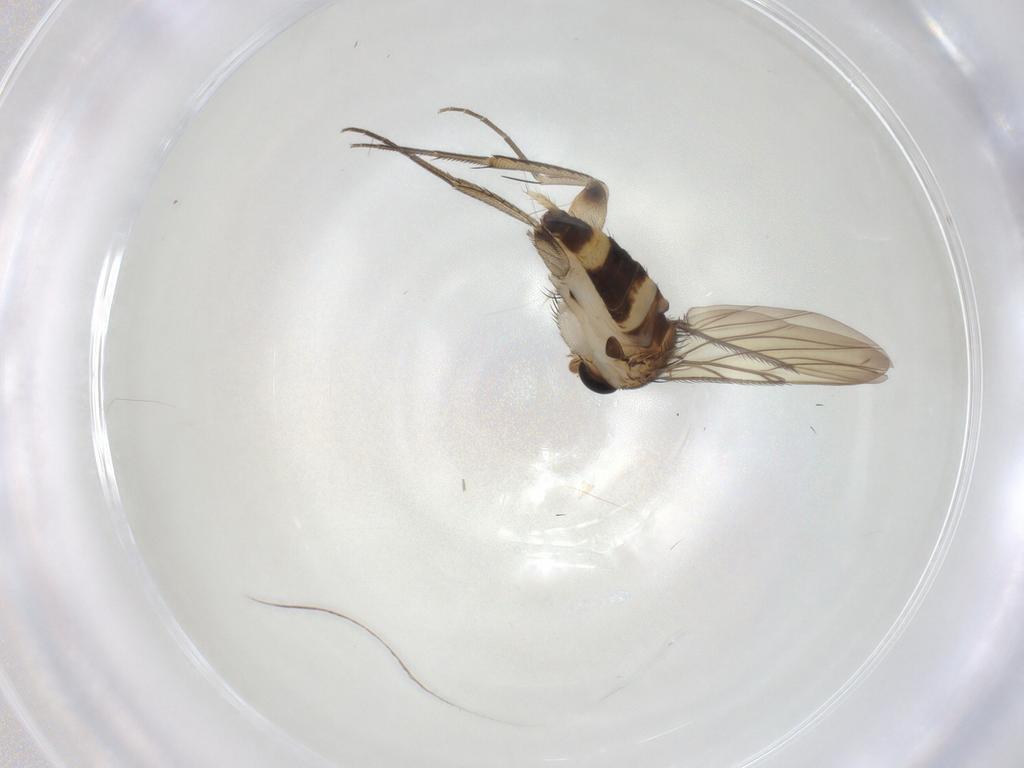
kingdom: Animalia
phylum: Arthropoda
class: Insecta
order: Diptera
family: Phoridae
